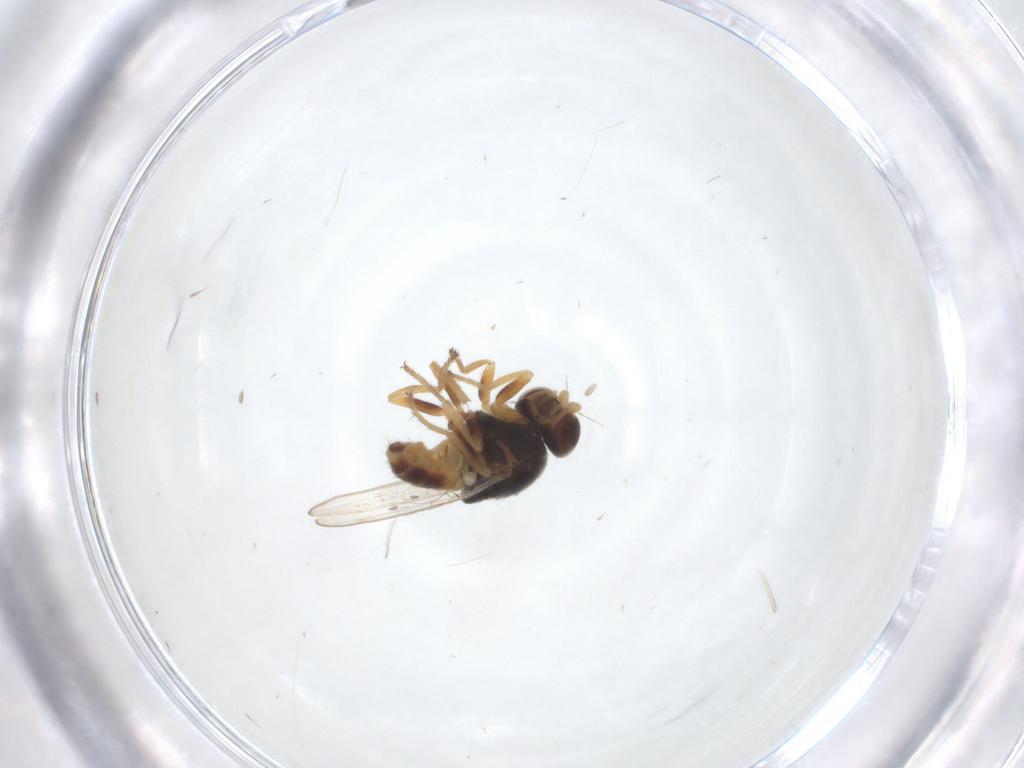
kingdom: Animalia
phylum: Arthropoda
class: Insecta
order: Diptera
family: Chloropidae
